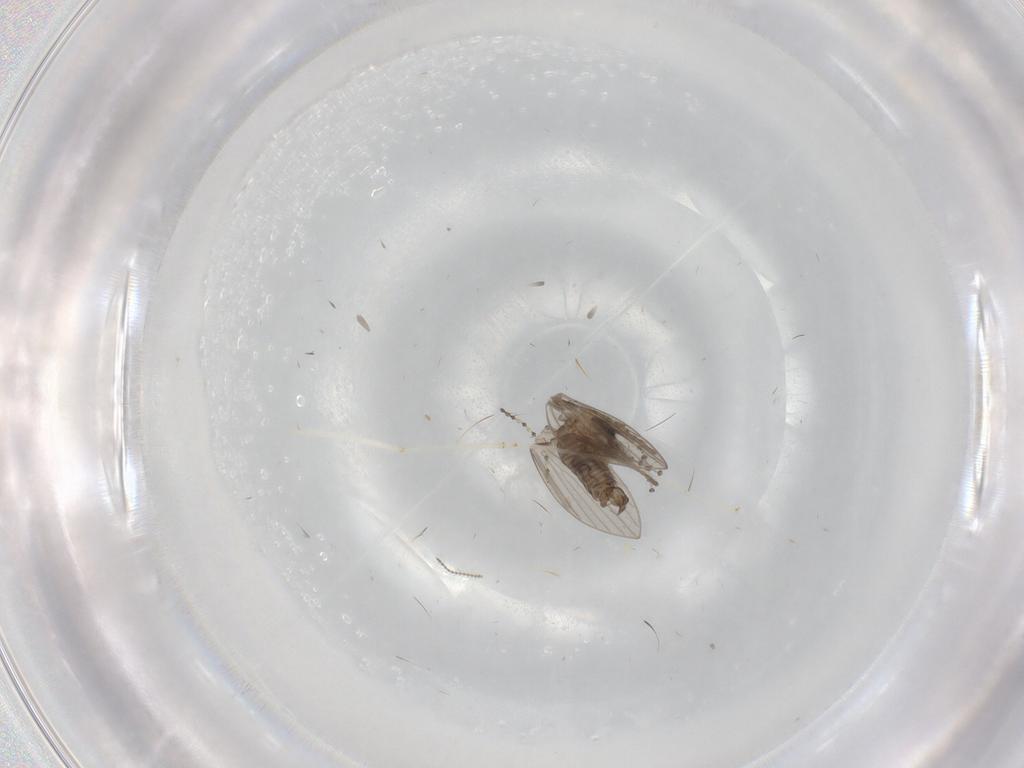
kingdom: Animalia
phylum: Arthropoda
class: Insecta
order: Diptera
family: Cecidomyiidae
